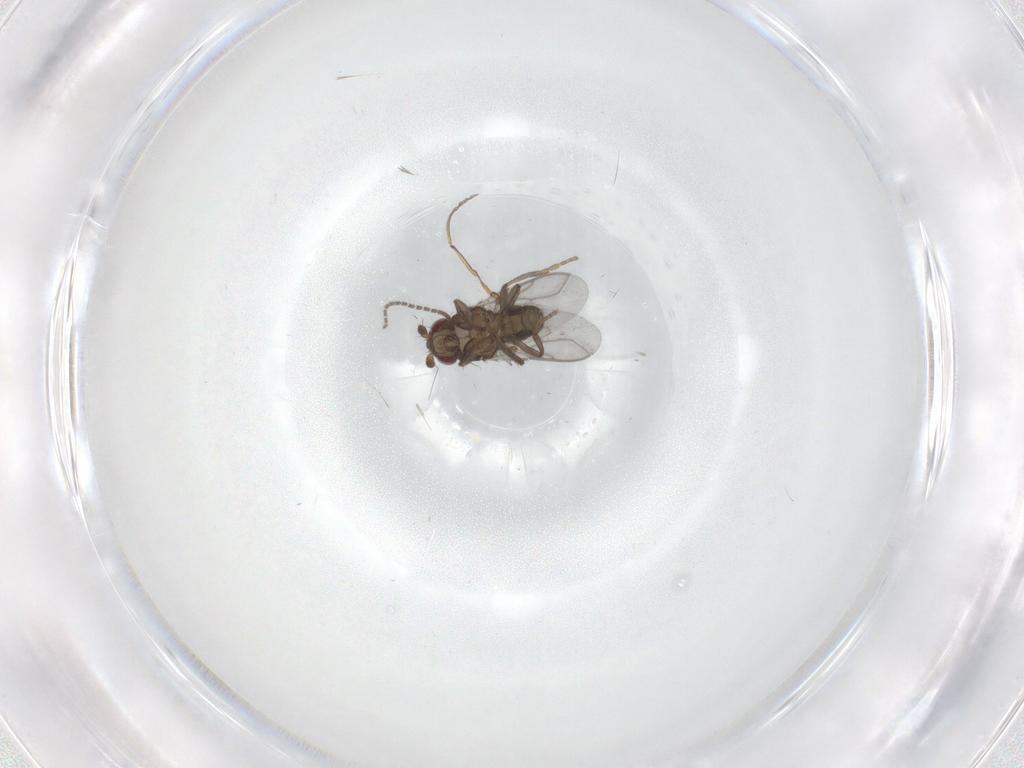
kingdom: Animalia
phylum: Arthropoda
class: Insecta
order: Diptera
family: Sciaridae
